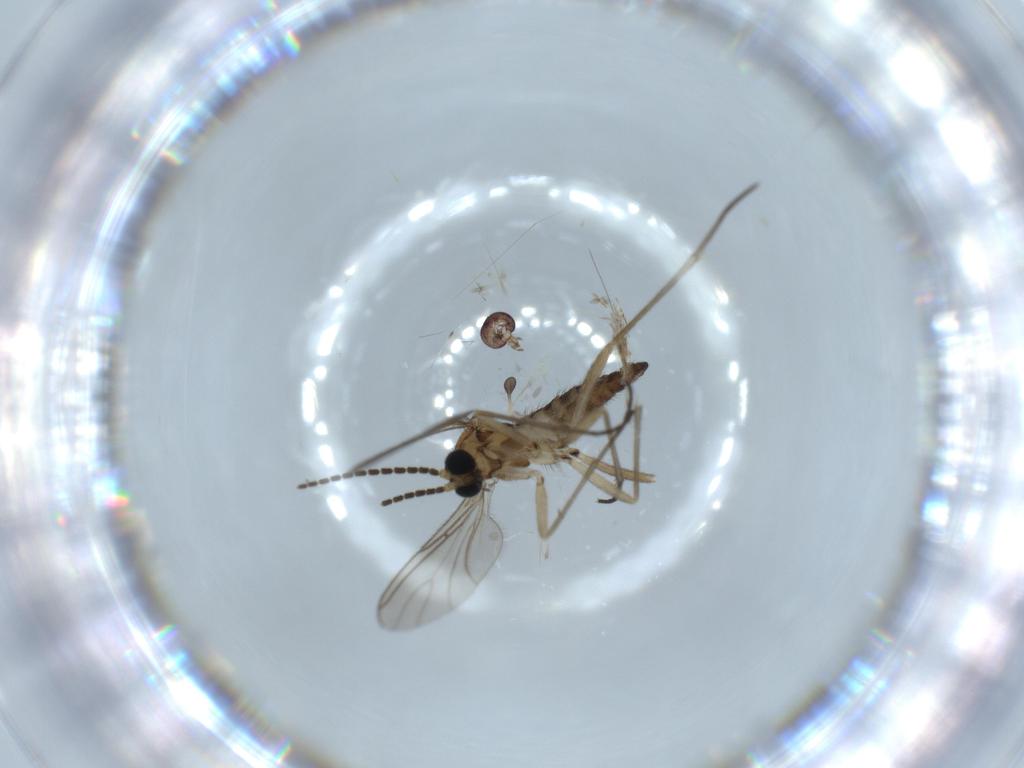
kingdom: Animalia
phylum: Arthropoda
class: Insecta
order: Diptera
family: Sciaridae
